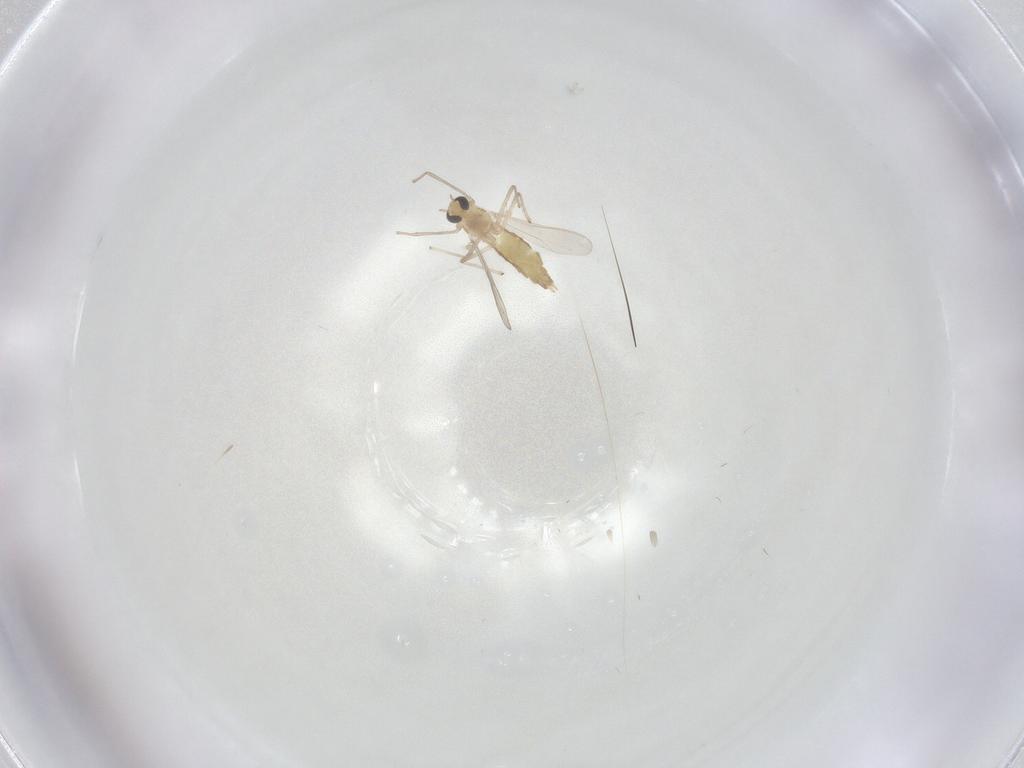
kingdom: Animalia
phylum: Arthropoda
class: Insecta
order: Diptera
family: Chironomidae
